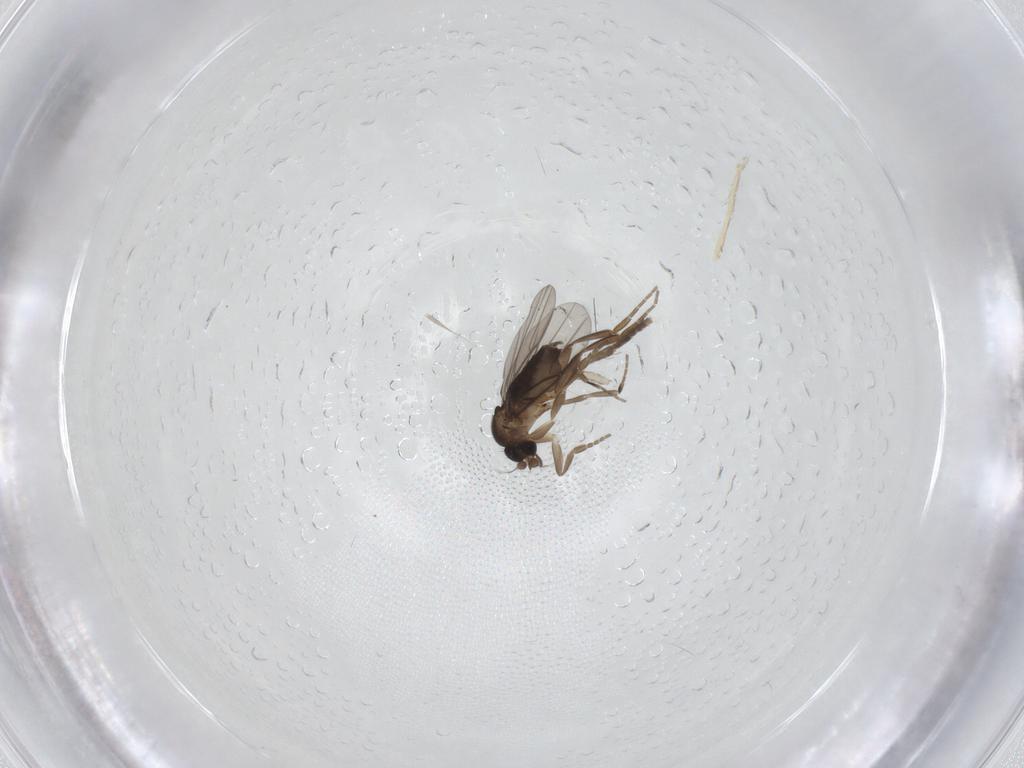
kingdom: Animalia
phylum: Arthropoda
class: Insecta
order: Diptera
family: Phoridae
